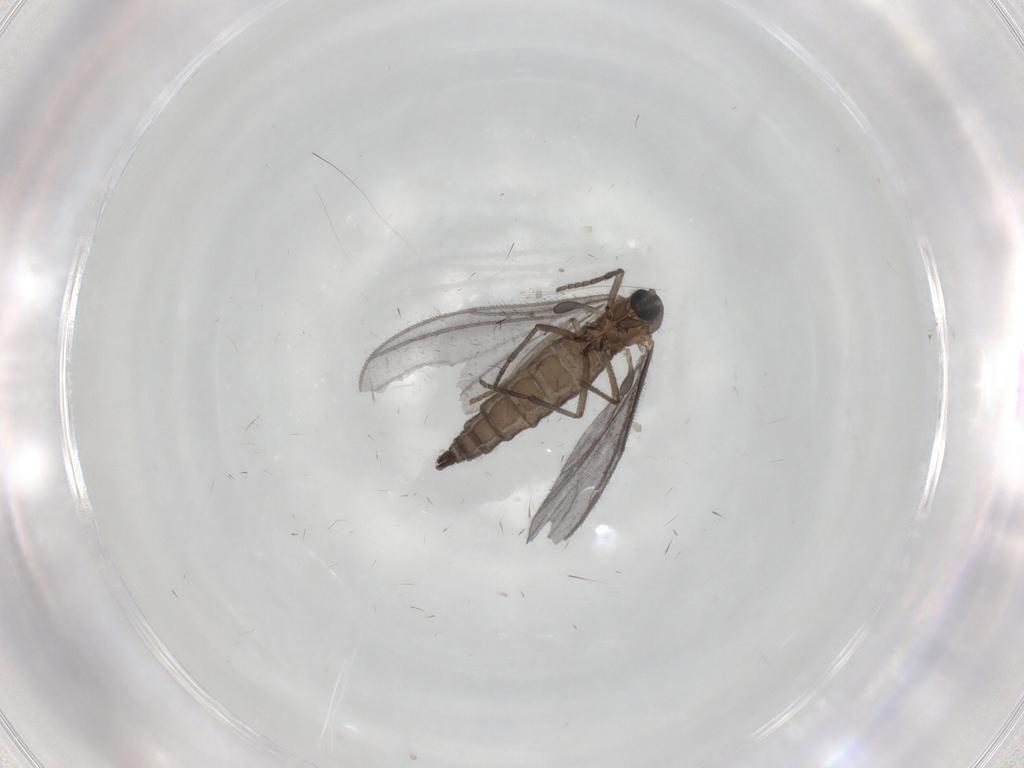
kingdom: Animalia
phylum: Arthropoda
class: Insecta
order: Diptera
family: Sciaridae
